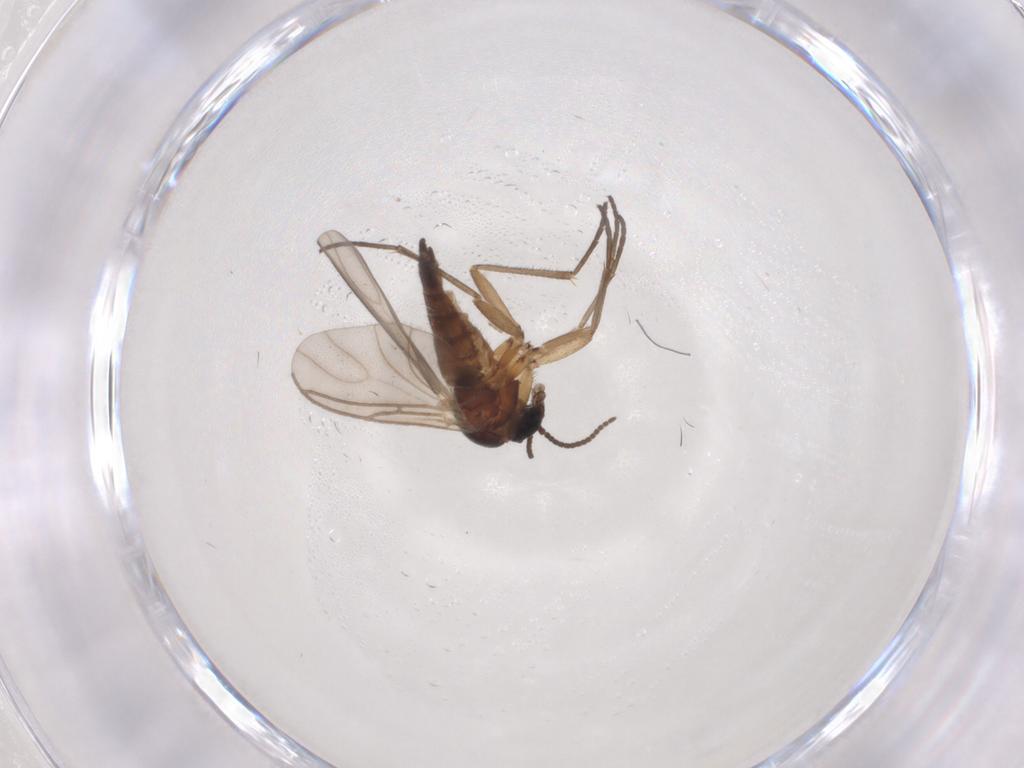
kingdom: Animalia
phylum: Arthropoda
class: Insecta
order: Diptera
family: Sciaridae
